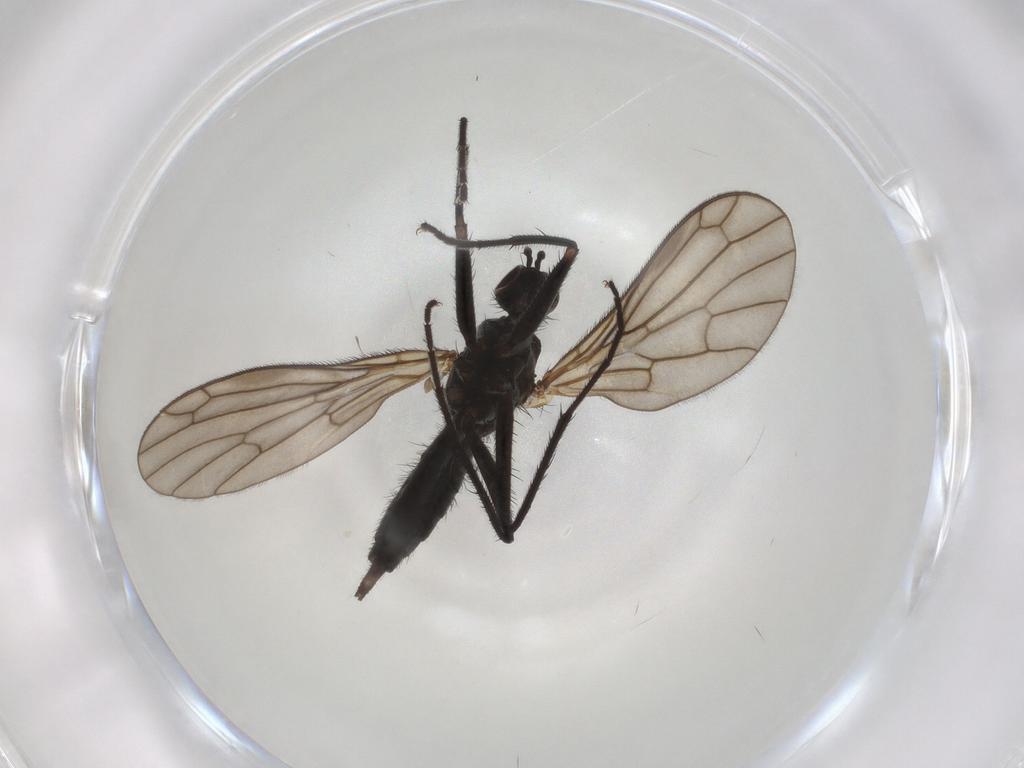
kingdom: Animalia
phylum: Arthropoda
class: Insecta
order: Diptera
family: Empididae
